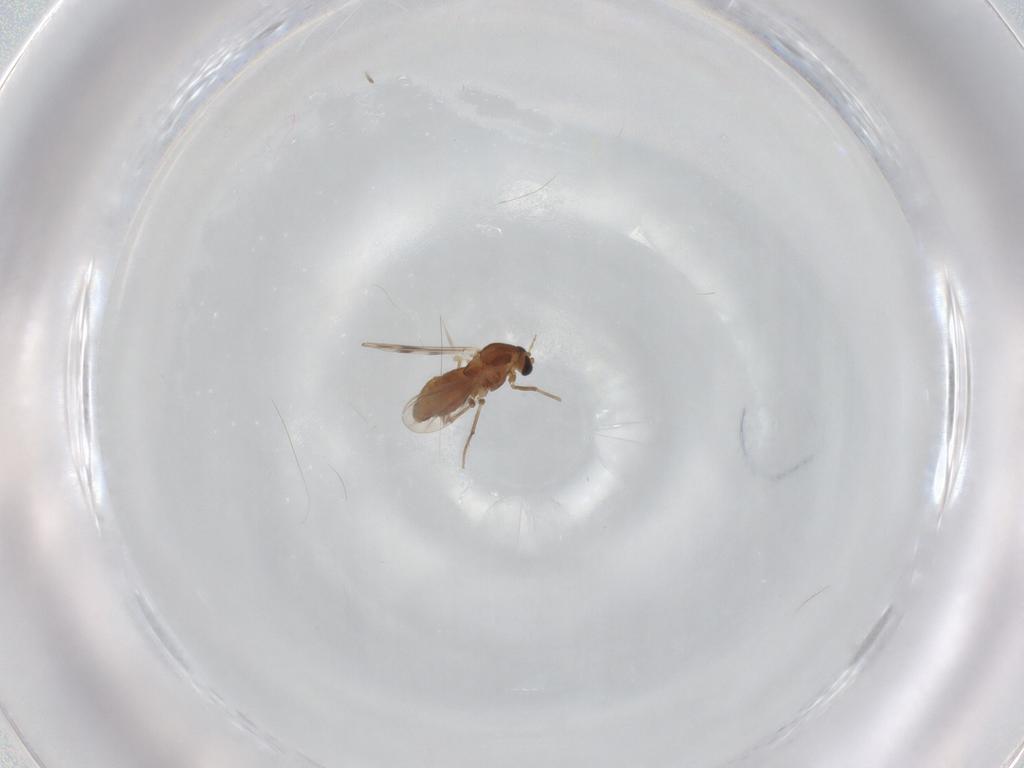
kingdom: Animalia
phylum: Arthropoda
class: Insecta
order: Diptera
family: Chironomidae
